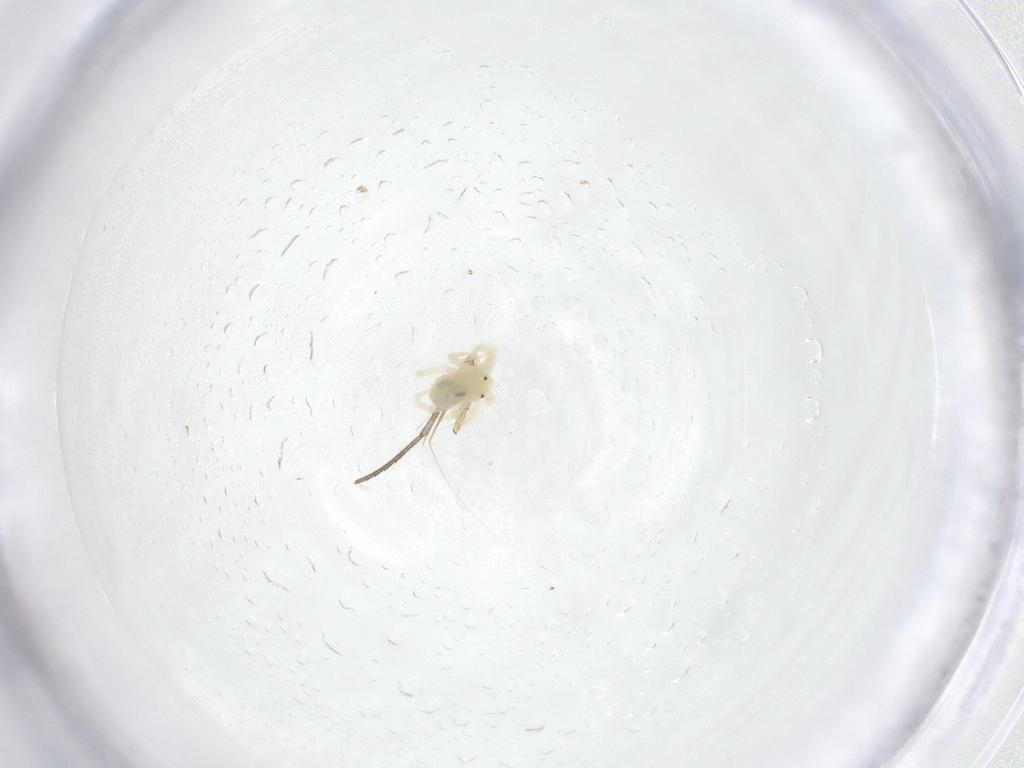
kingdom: Animalia
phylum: Arthropoda
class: Arachnida
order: Trombidiformes
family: Anystidae
